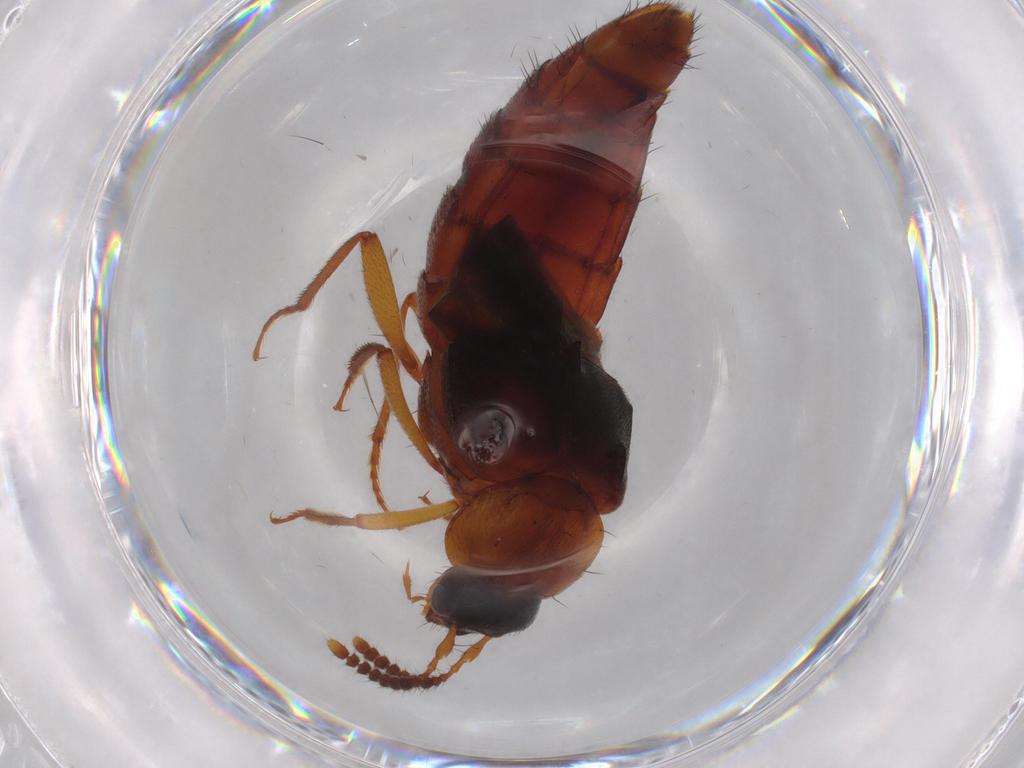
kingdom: Animalia
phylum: Arthropoda
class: Insecta
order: Coleoptera
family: Staphylinidae
